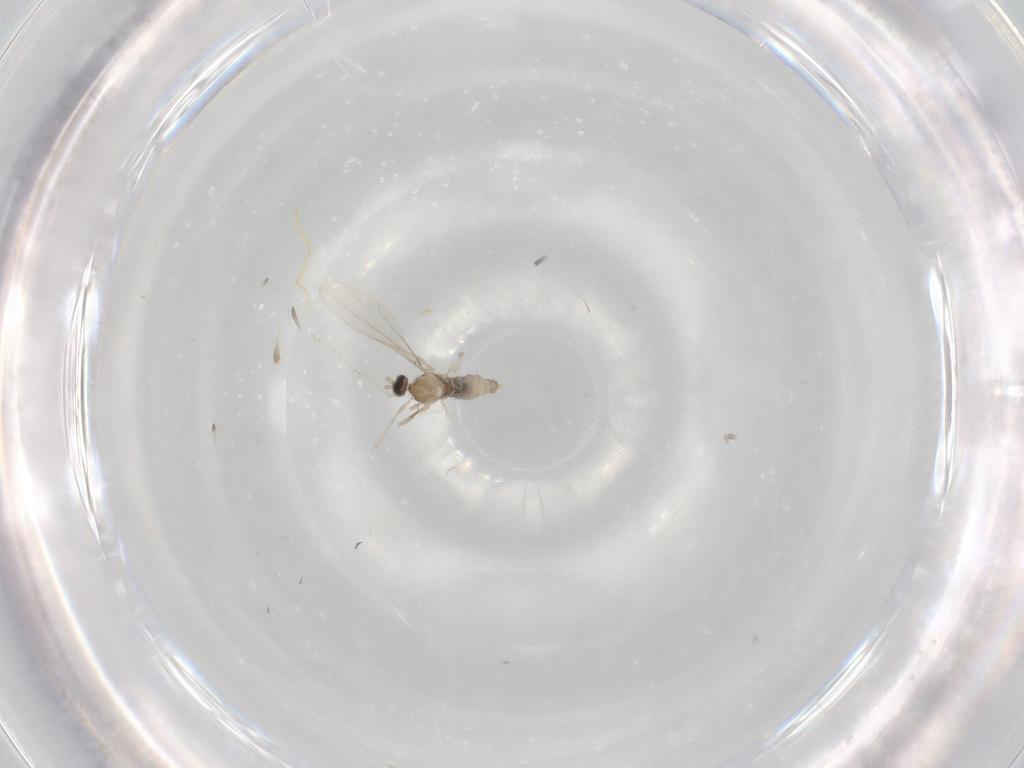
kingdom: Animalia
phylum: Arthropoda
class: Insecta
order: Diptera
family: Cecidomyiidae
